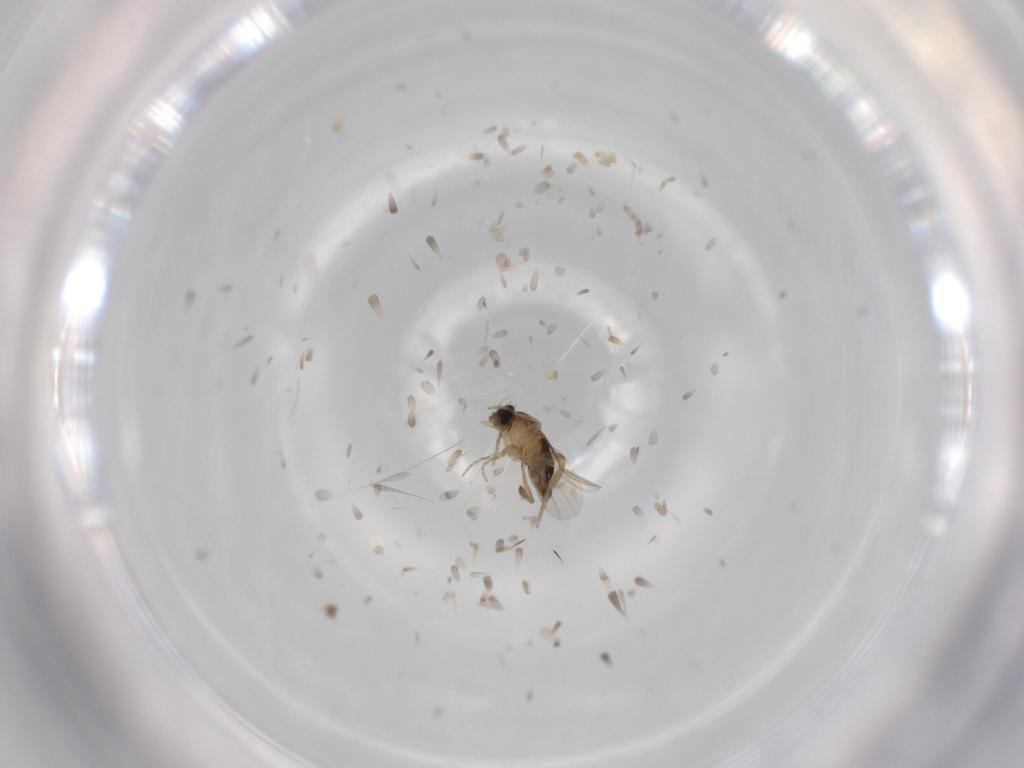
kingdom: Animalia
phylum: Arthropoda
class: Insecta
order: Diptera
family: Phoridae
